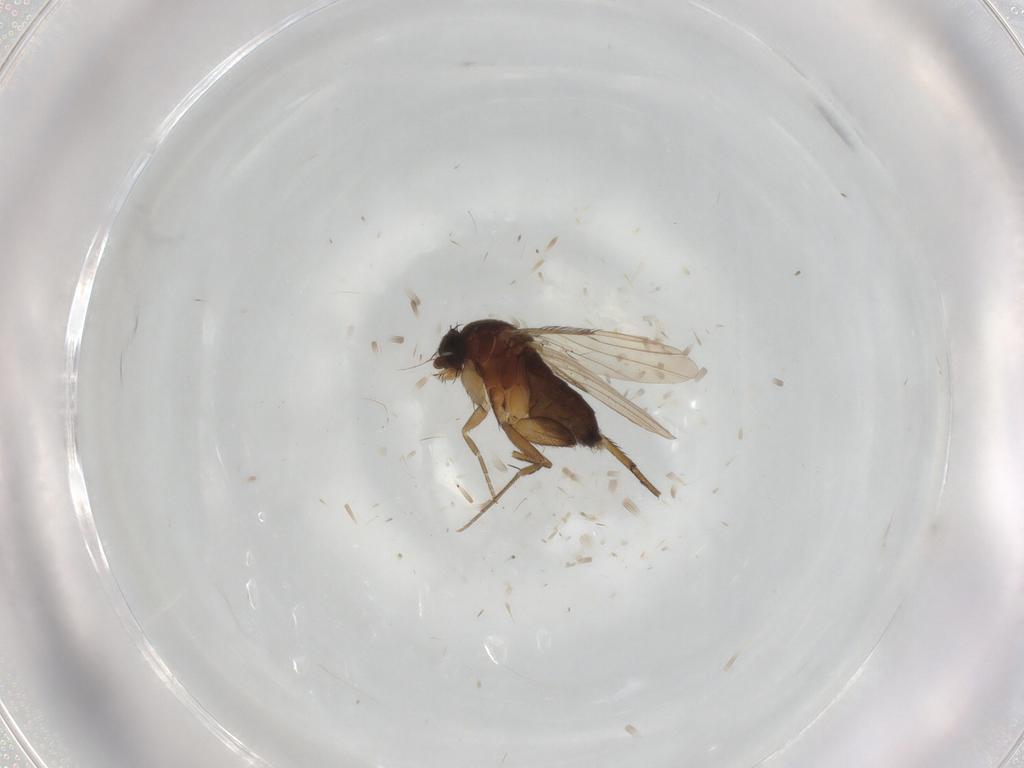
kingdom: Animalia
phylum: Arthropoda
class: Insecta
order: Diptera
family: Phoridae
